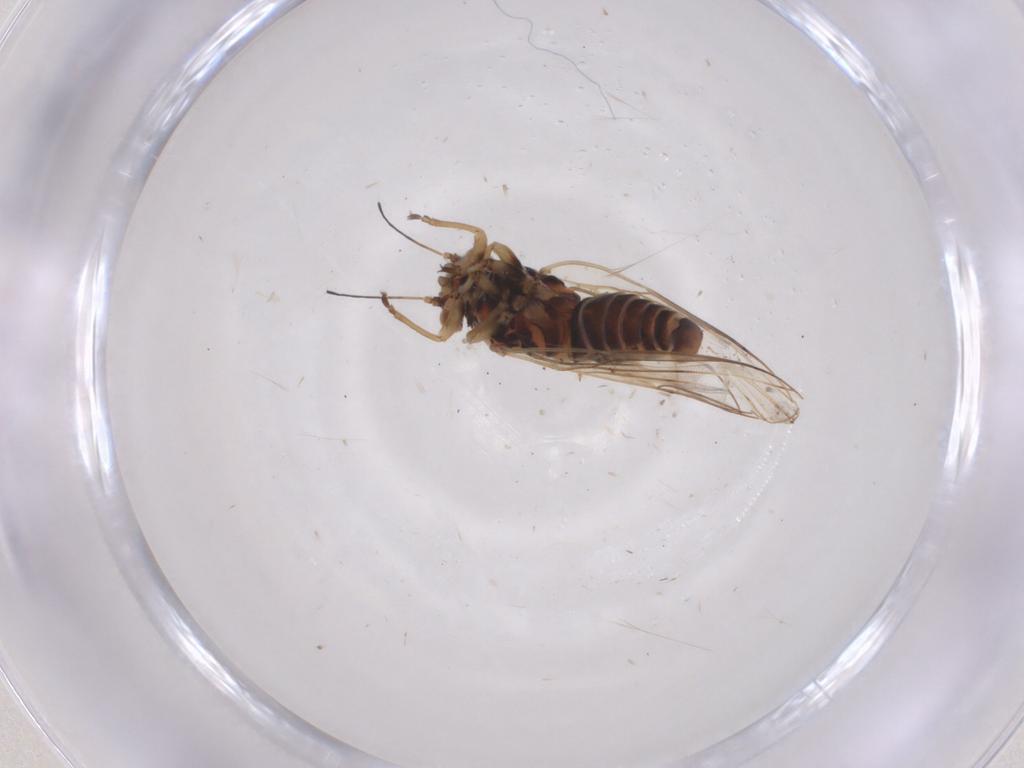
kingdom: Animalia
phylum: Arthropoda
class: Insecta
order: Hemiptera
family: Psyllidae
